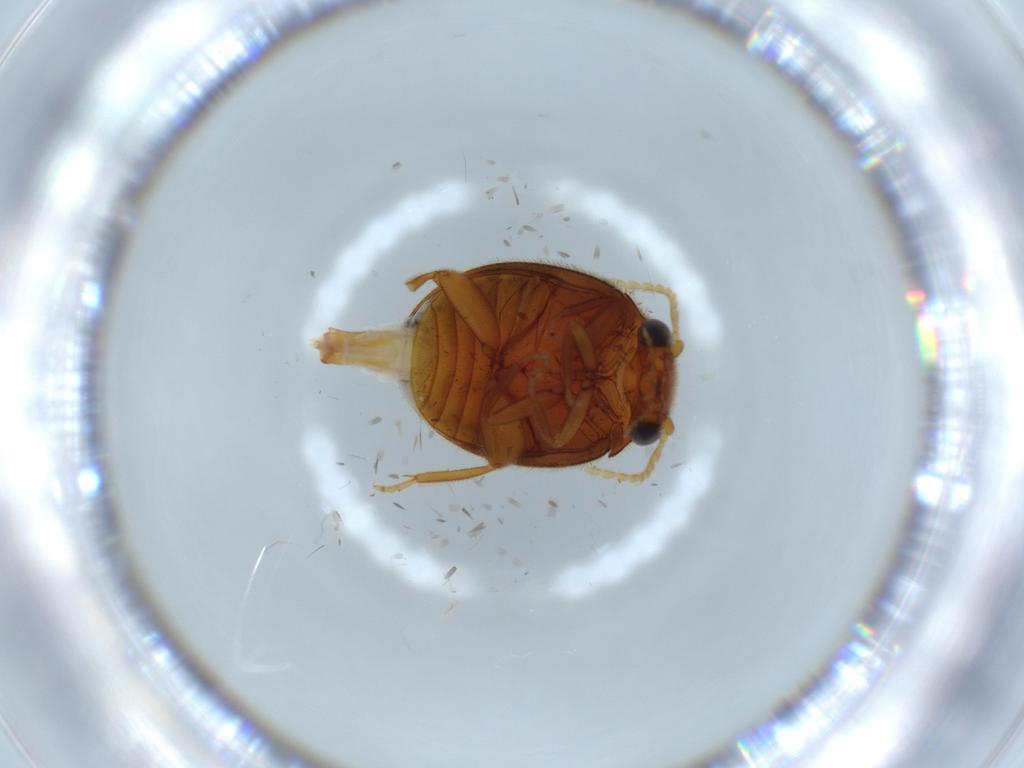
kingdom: Animalia
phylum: Arthropoda
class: Insecta
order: Coleoptera
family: Scirtidae
